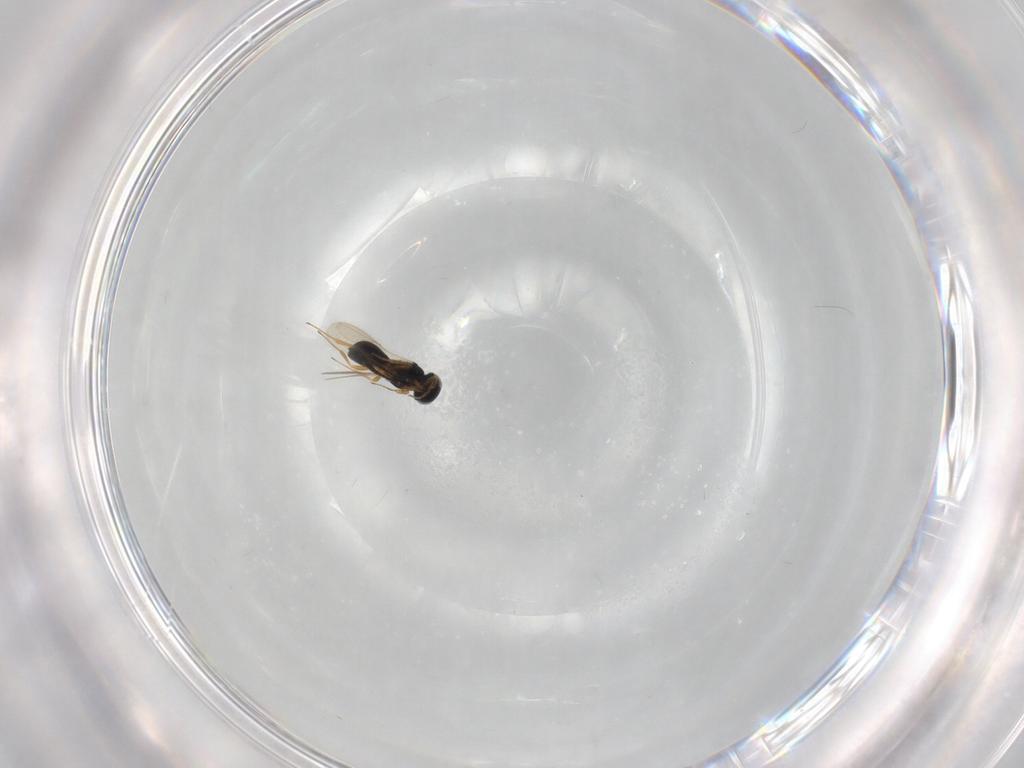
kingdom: Animalia
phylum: Arthropoda
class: Insecta
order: Hymenoptera
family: Scelionidae
